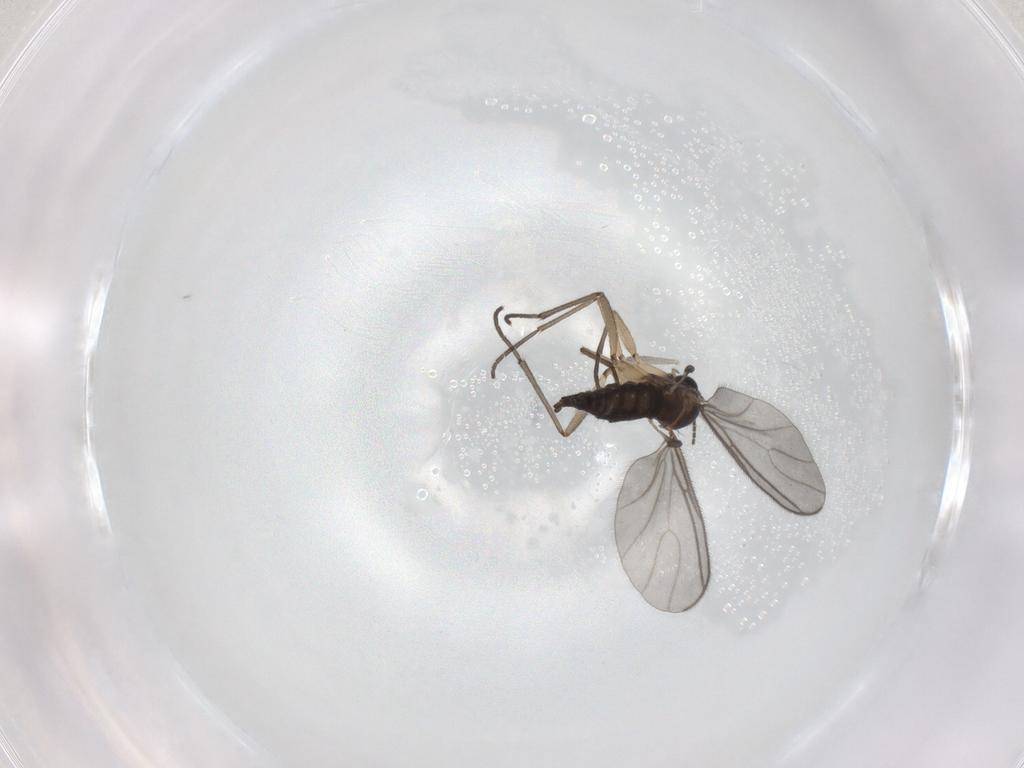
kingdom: Animalia
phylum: Arthropoda
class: Insecta
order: Diptera
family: Sciaridae
